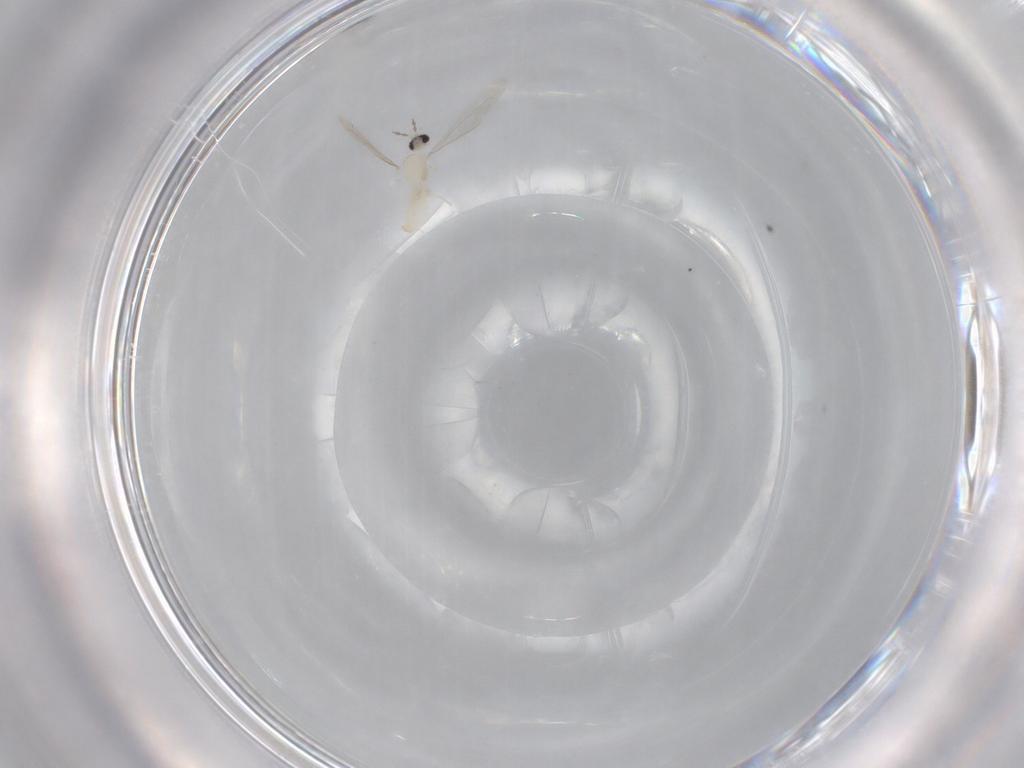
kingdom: Animalia
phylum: Arthropoda
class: Insecta
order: Diptera
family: Cecidomyiidae
